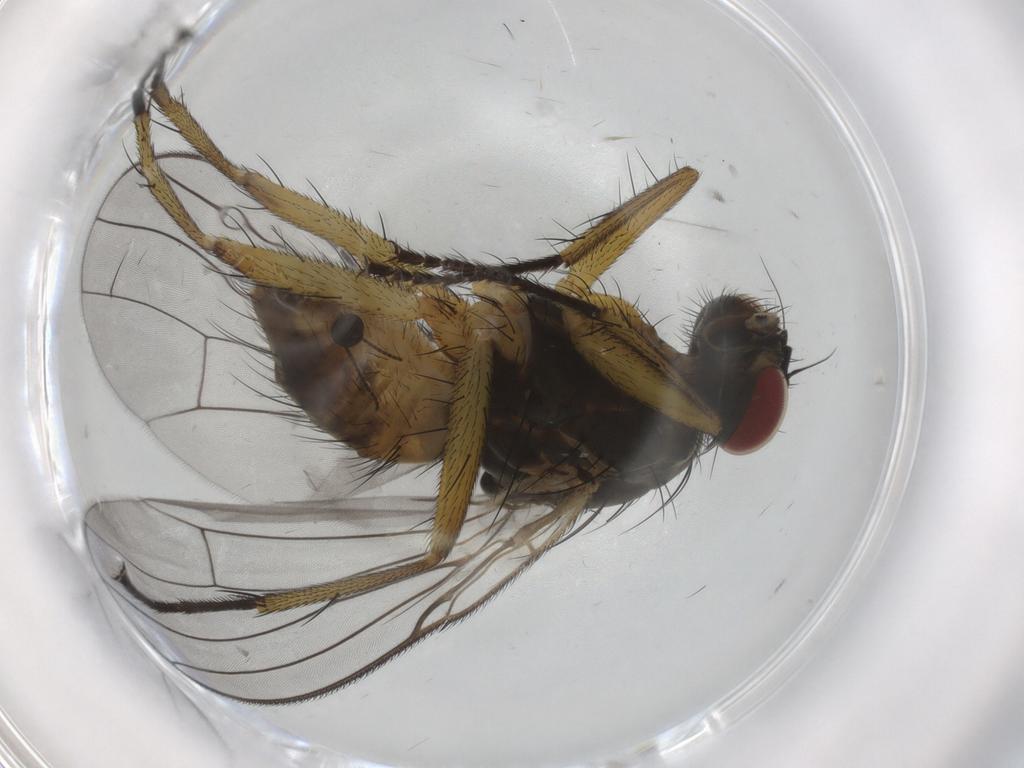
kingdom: Animalia
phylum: Arthropoda
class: Insecta
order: Diptera
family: Muscidae
